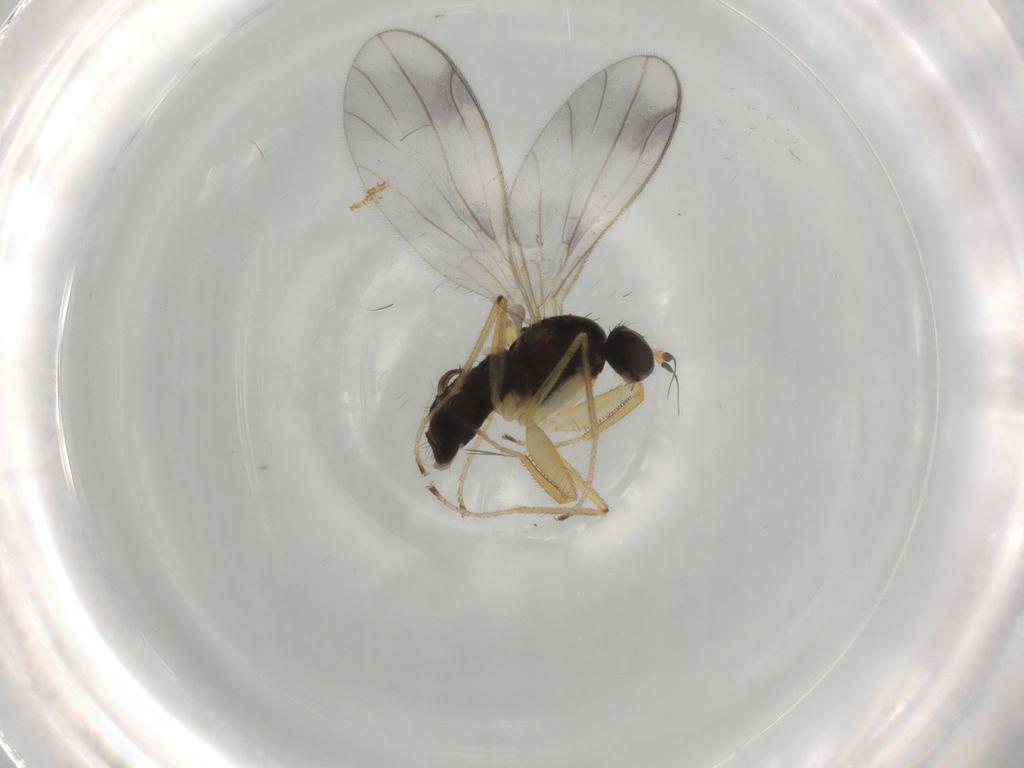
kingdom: Animalia
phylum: Arthropoda
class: Insecta
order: Diptera
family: Empididae
